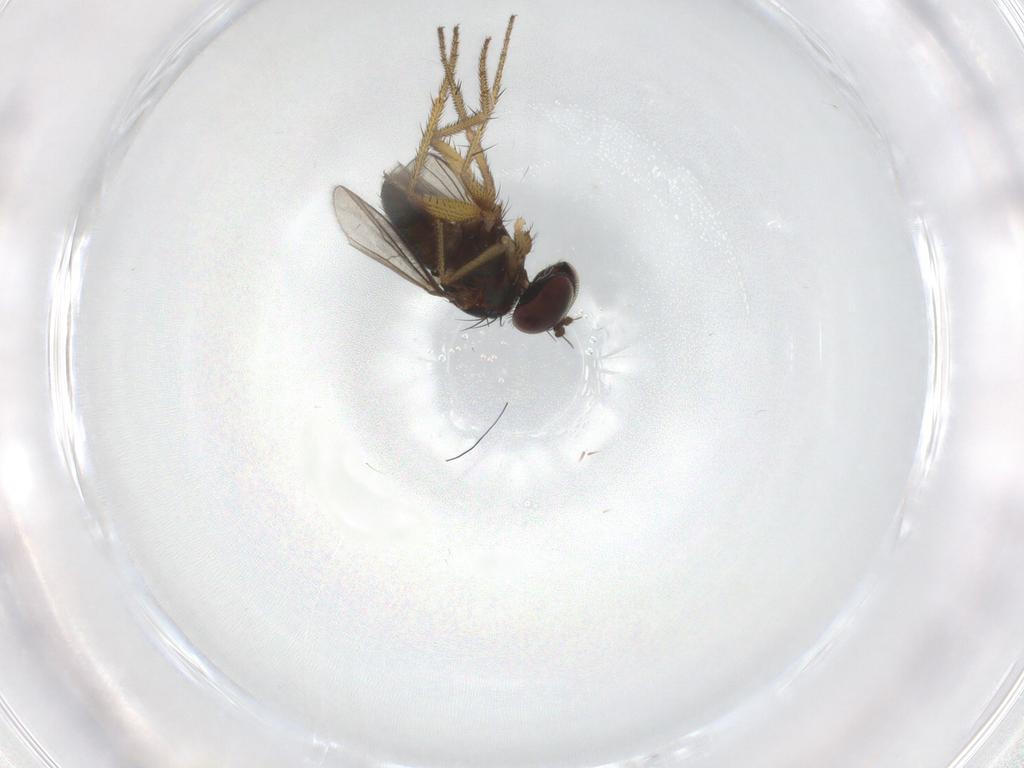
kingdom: Animalia
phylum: Arthropoda
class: Insecta
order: Diptera
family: Dolichopodidae
